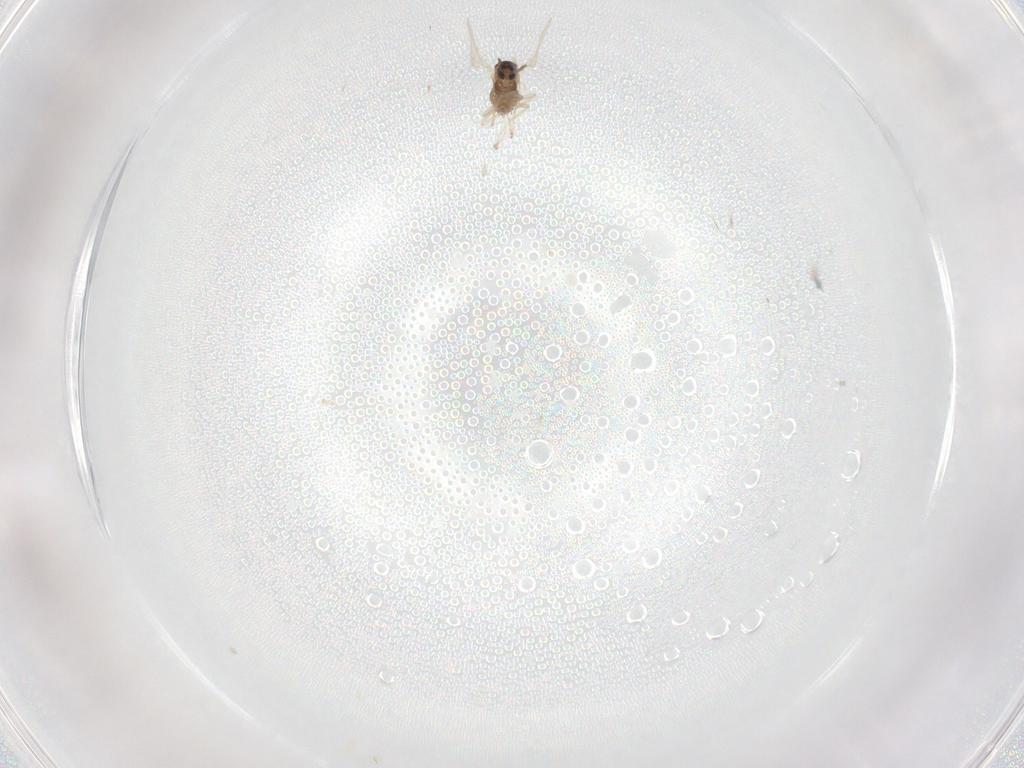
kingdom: Animalia
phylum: Arthropoda
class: Insecta
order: Diptera
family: Cecidomyiidae
